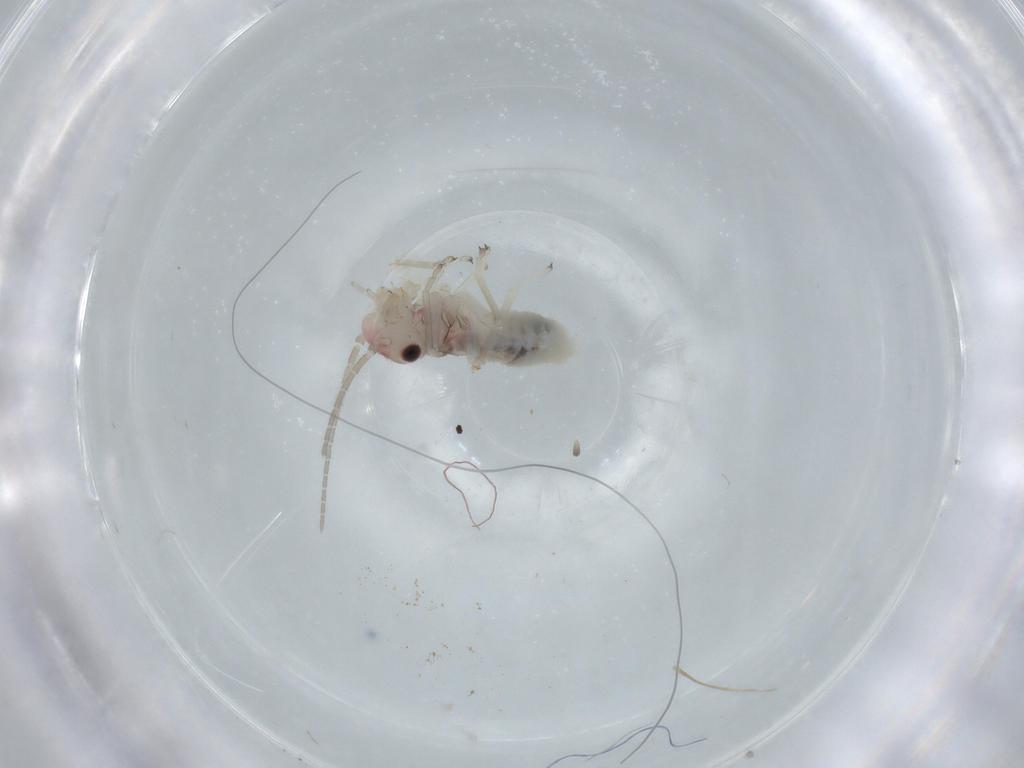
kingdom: Animalia
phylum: Arthropoda
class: Insecta
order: Psocodea
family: Amphipsocidae
